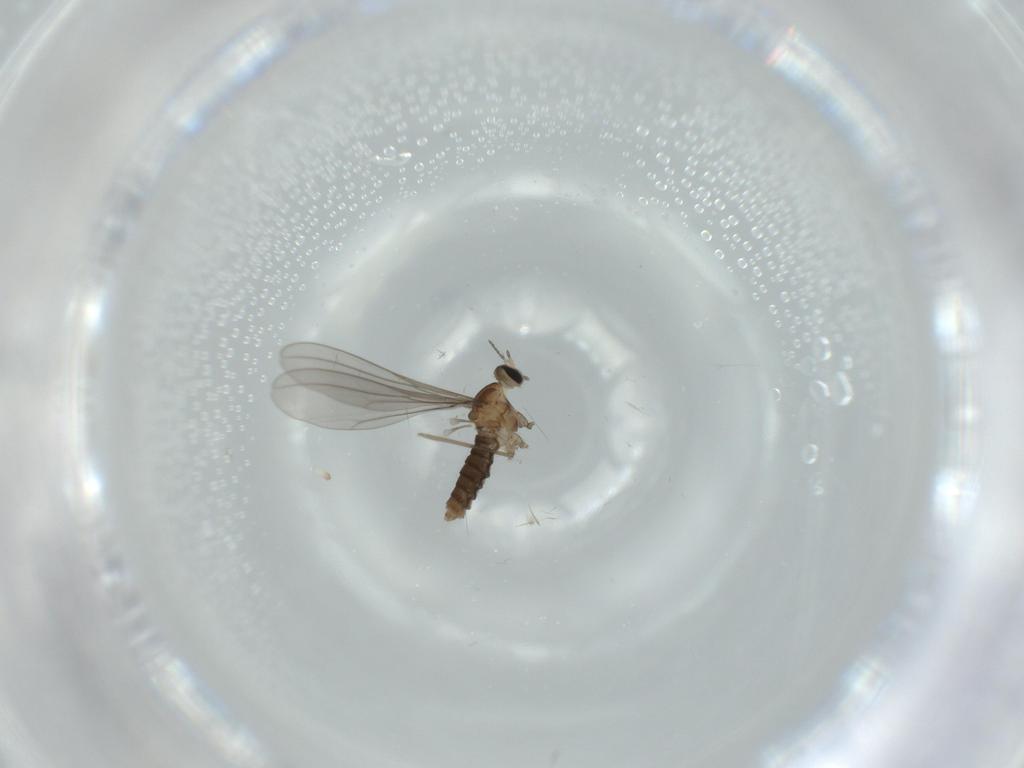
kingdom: Animalia
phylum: Arthropoda
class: Insecta
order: Diptera
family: Cecidomyiidae
